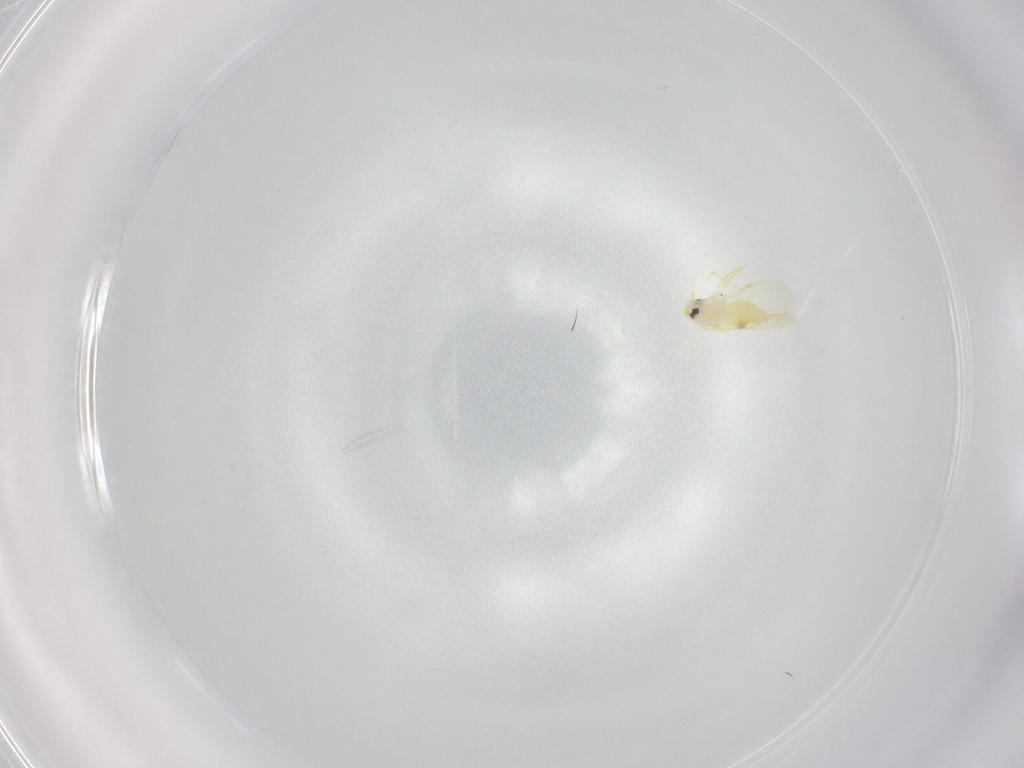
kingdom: Animalia
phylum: Arthropoda
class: Insecta
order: Hemiptera
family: Aleyrodidae
